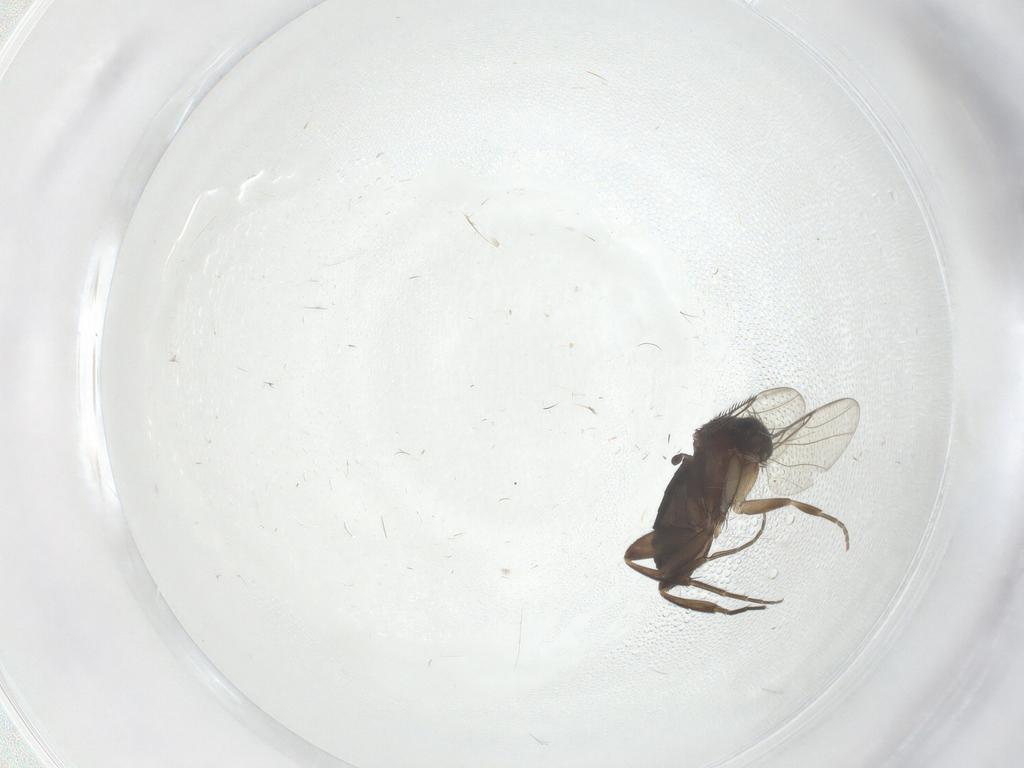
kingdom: Animalia
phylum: Arthropoda
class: Insecta
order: Diptera
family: Phoridae
